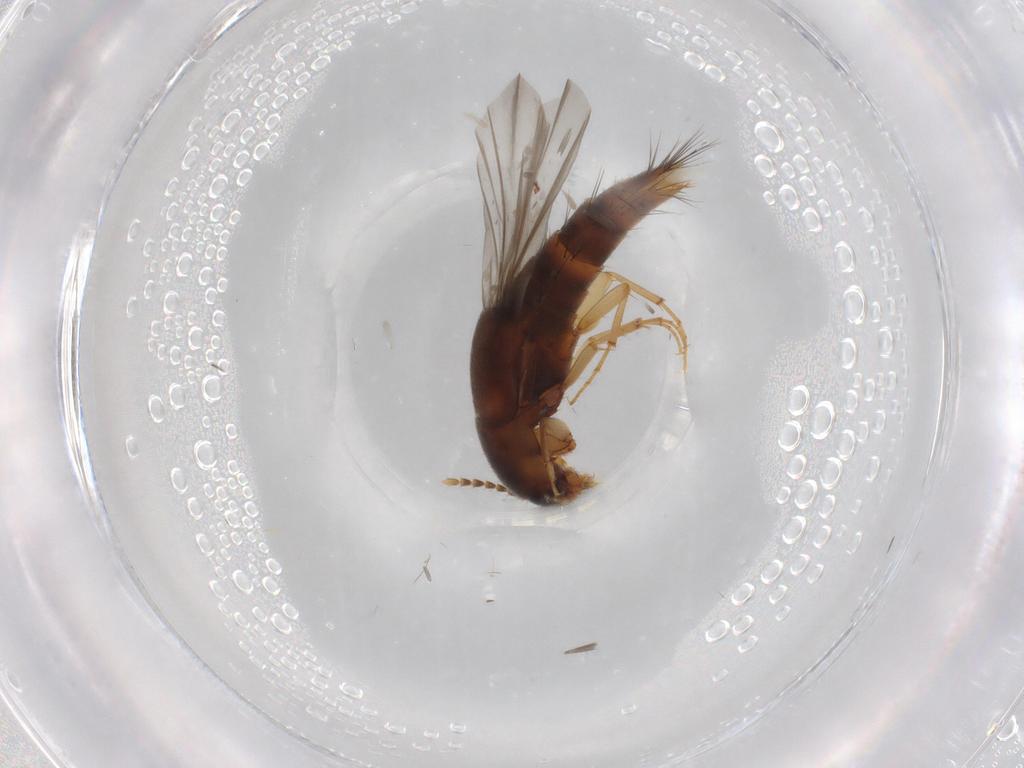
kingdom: Animalia
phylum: Arthropoda
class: Insecta
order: Coleoptera
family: Staphylinidae
